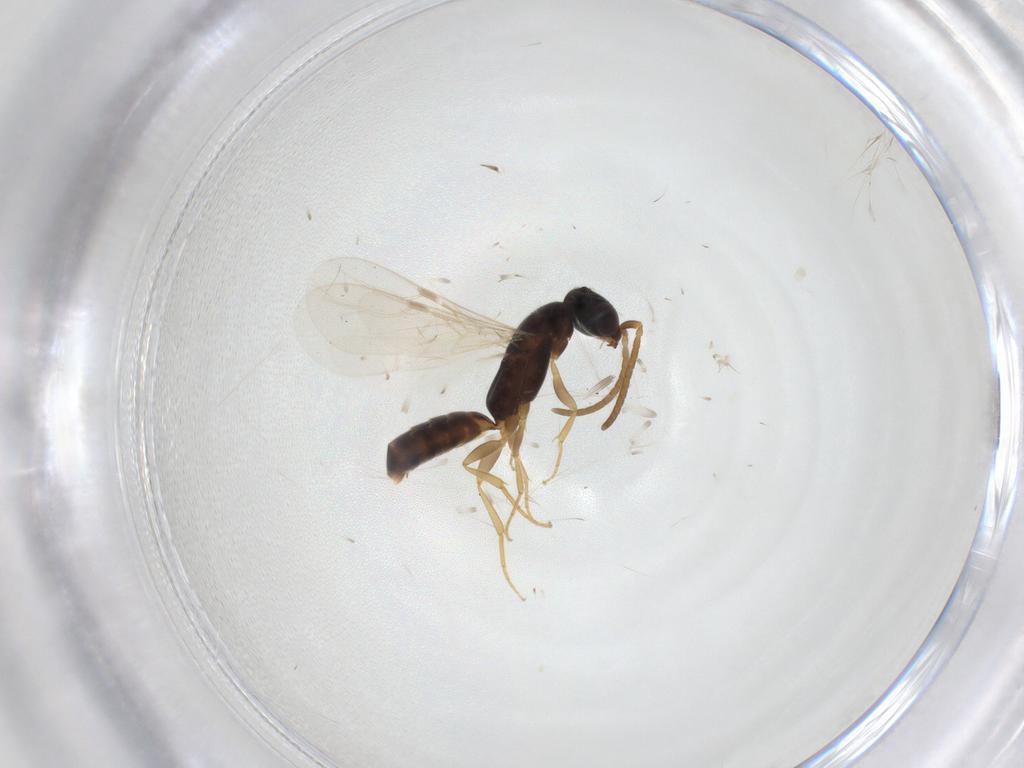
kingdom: Animalia
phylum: Arthropoda
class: Insecta
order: Hymenoptera
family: Bethylidae
